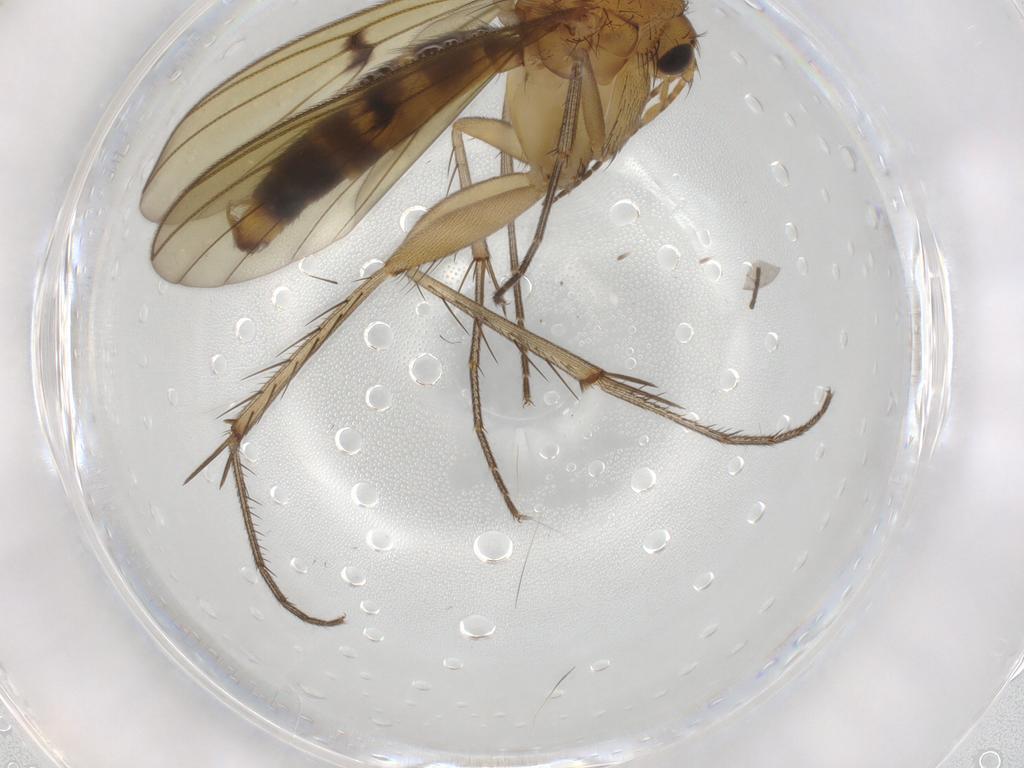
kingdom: Animalia
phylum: Arthropoda
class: Insecta
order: Diptera
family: Mycetophilidae
